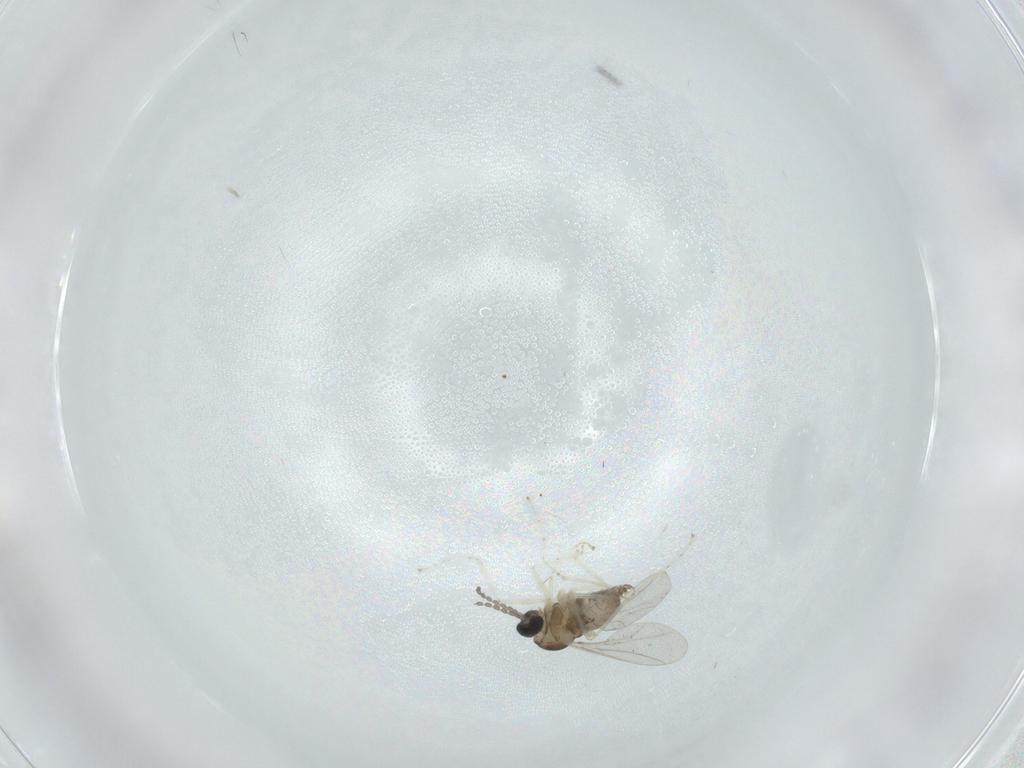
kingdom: Animalia
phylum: Arthropoda
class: Insecta
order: Diptera
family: Cecidomyiidae
